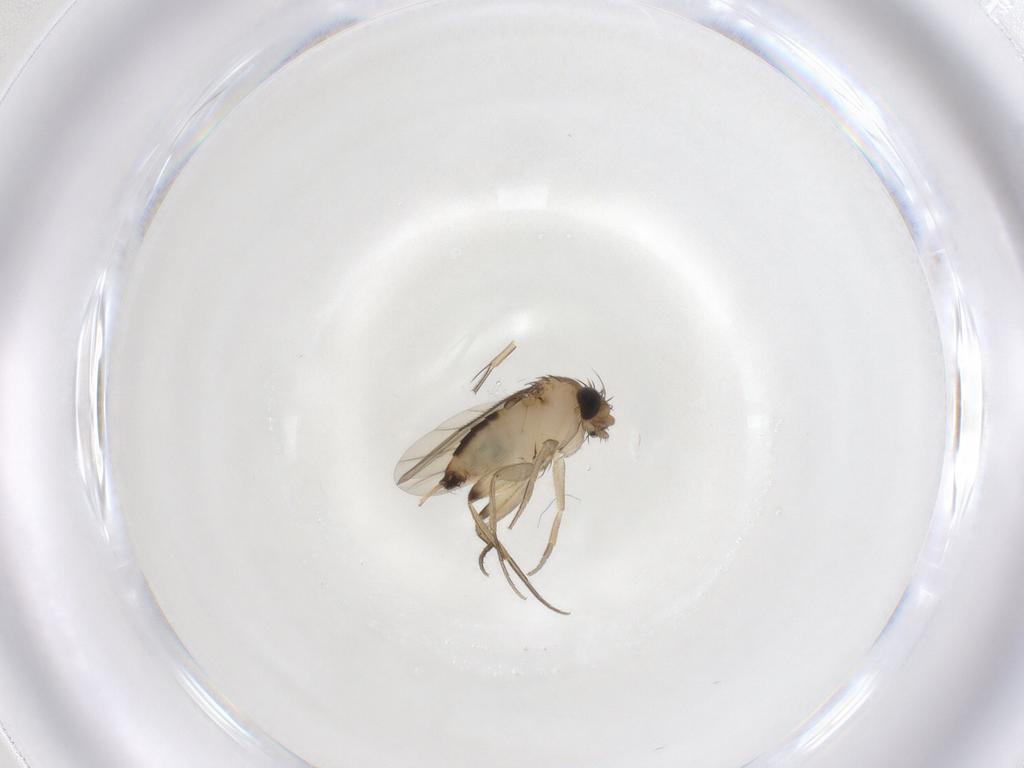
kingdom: Animalia
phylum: Arthropoda
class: Insecta
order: Diptera
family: Phoridae
